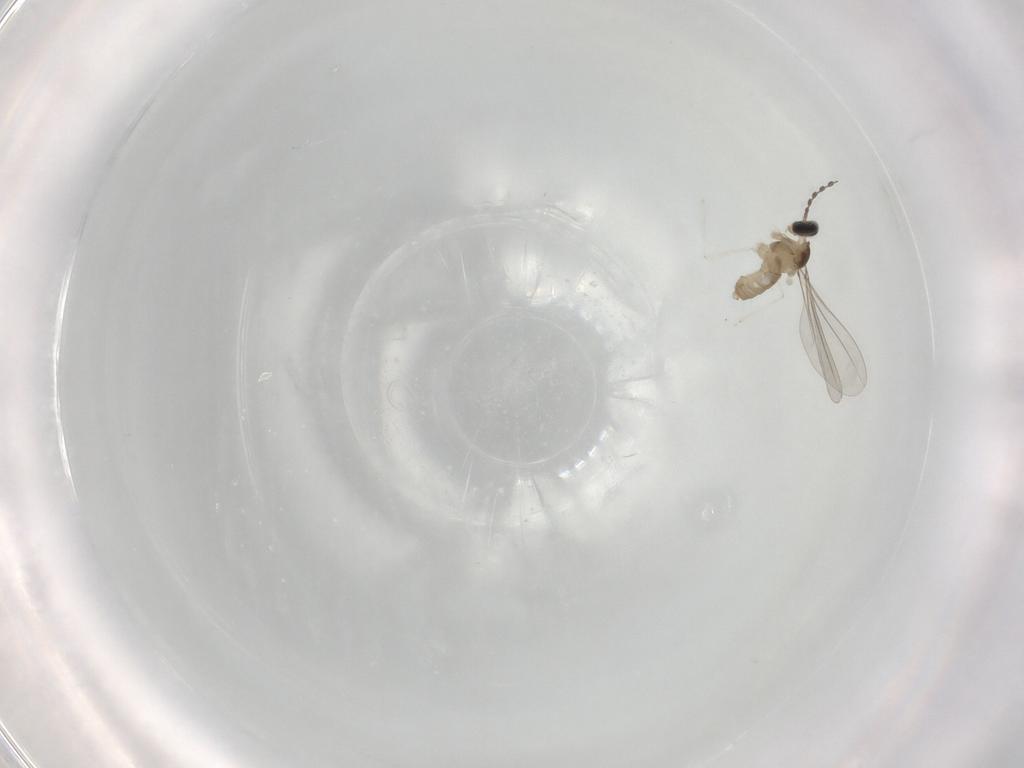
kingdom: Animalia
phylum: Arthropoda
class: Insecta
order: Diptera
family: Cecidomyiidae
